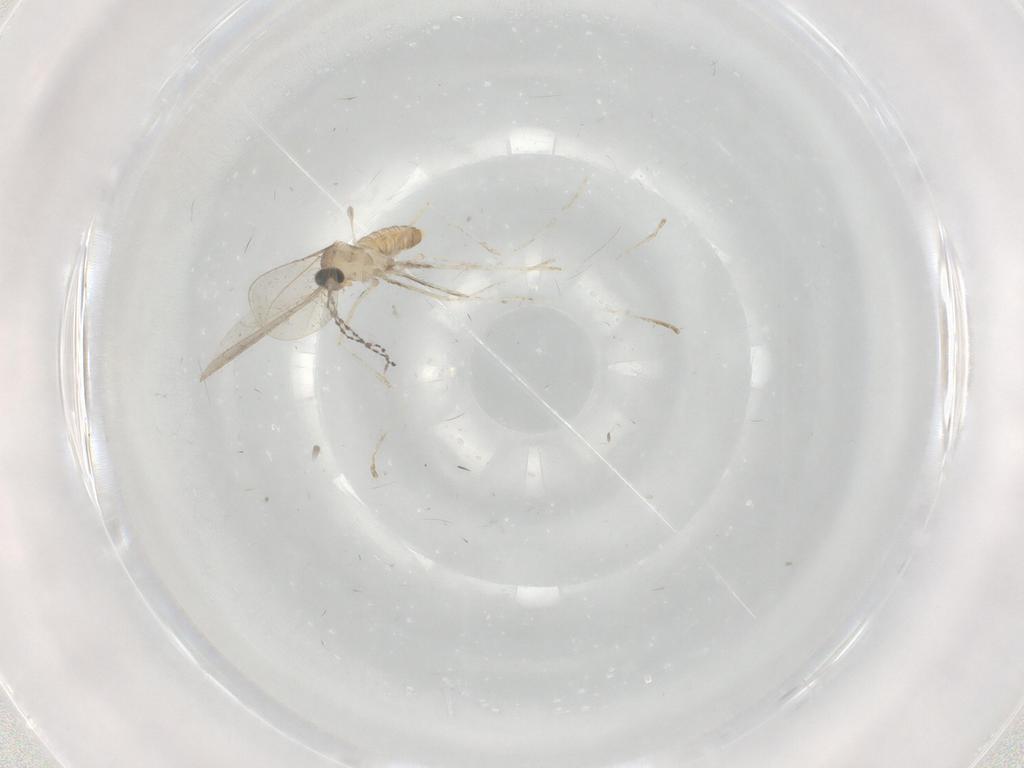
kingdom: Animalia
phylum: Arthropoda
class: Insecta
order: Diptera
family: Cecidomyiidae
